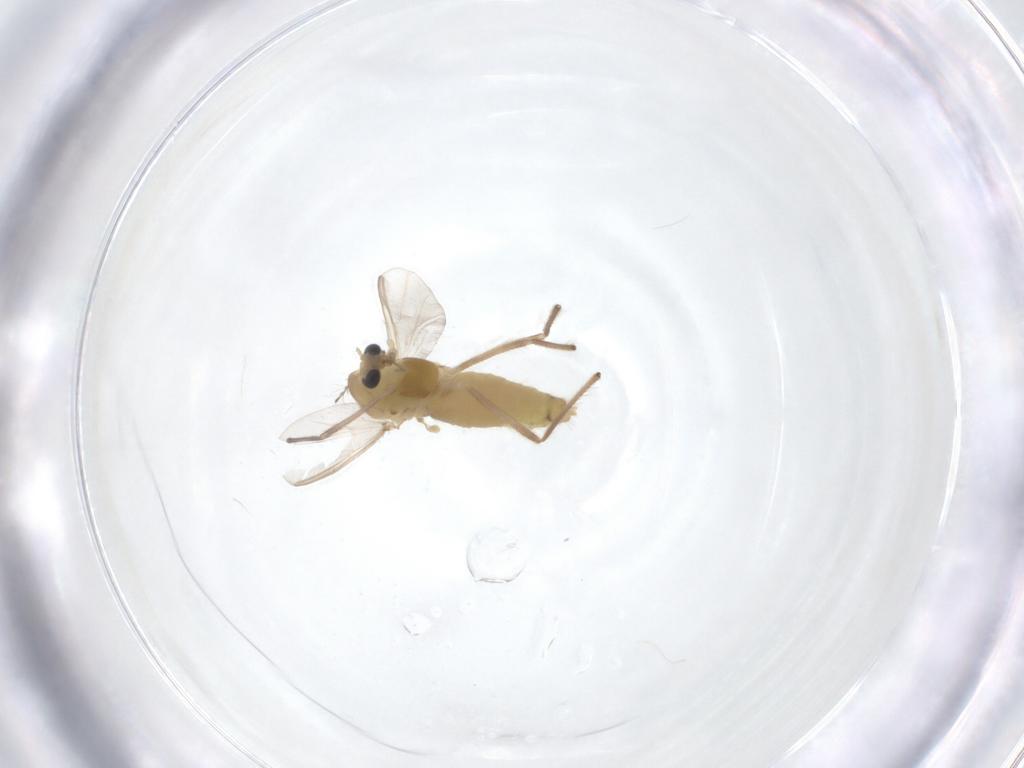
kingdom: Animalia
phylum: Arthropoda
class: Insecta
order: Diptera
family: Chironomidae
